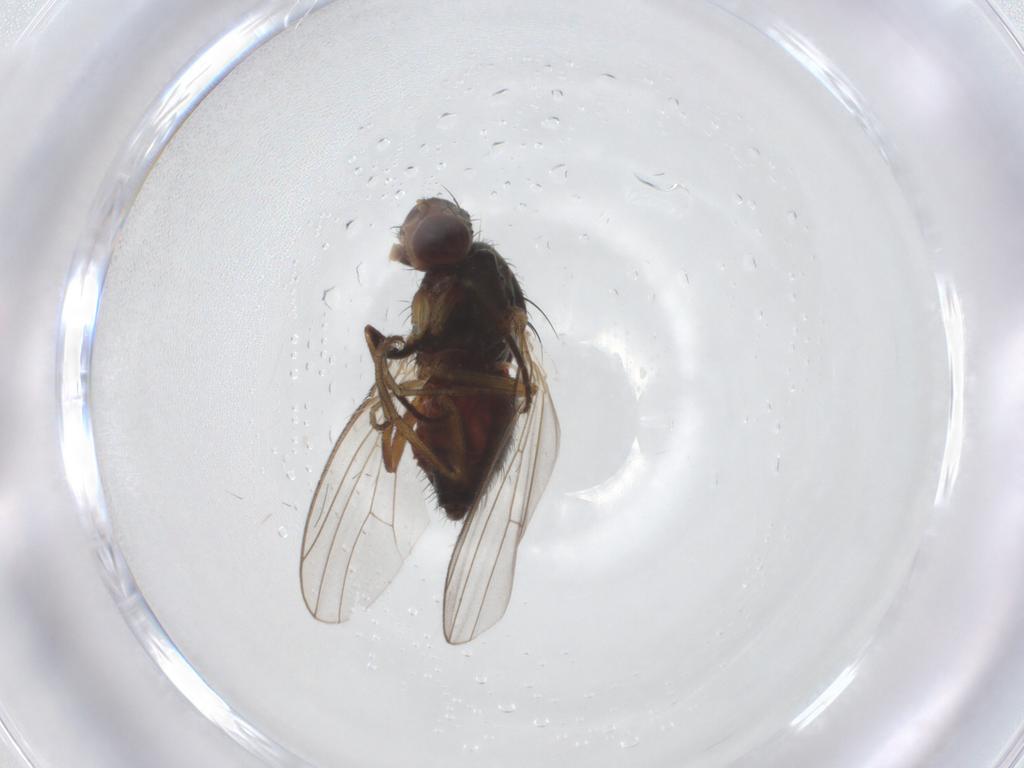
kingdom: Animalia
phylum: Arthropoda
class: Insecta
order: Diptera
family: Heleomyzidae
